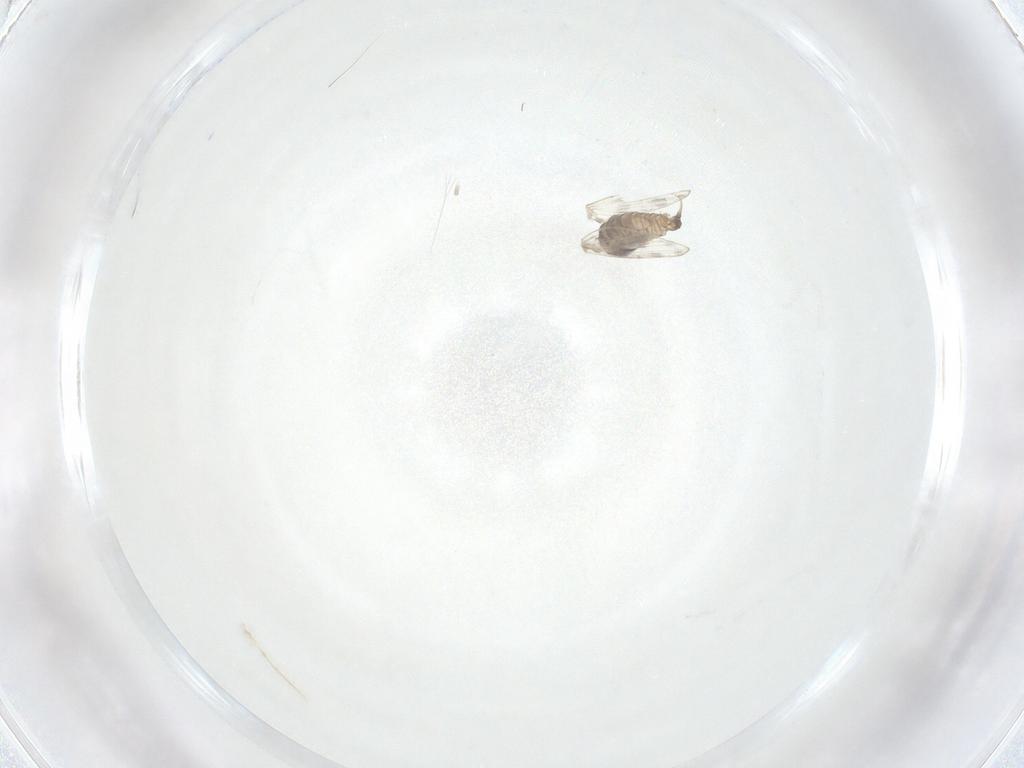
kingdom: Animalia
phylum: Arthropoda
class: Insecta
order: Diptera
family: Psychodidae
